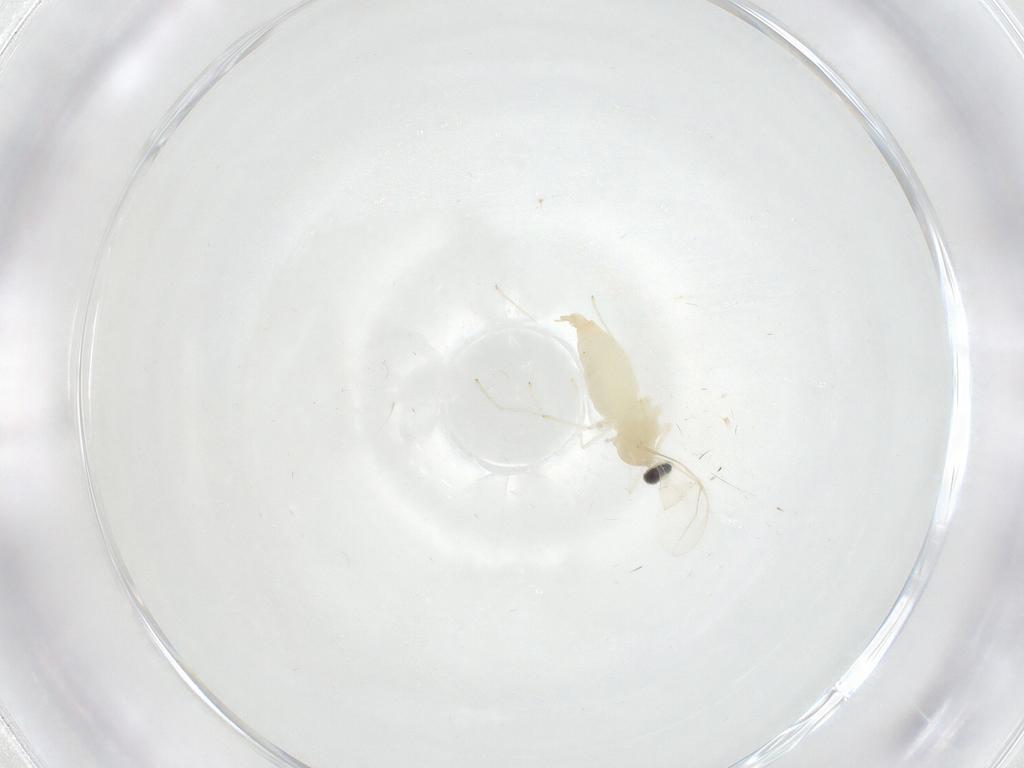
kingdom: Animalia
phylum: Arthropoda
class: Insecta
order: Diptera
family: Cecidomyiidae
